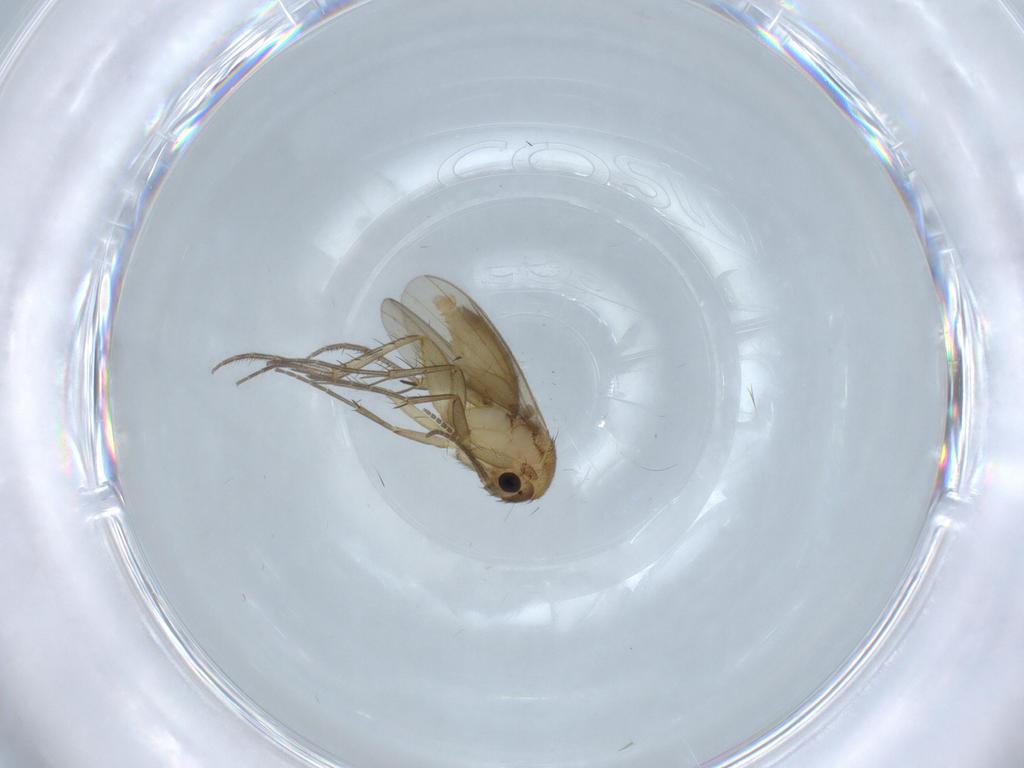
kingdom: Animalia
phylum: Arthropoda
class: Insecta
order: Diptera
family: Mycetophilidae
